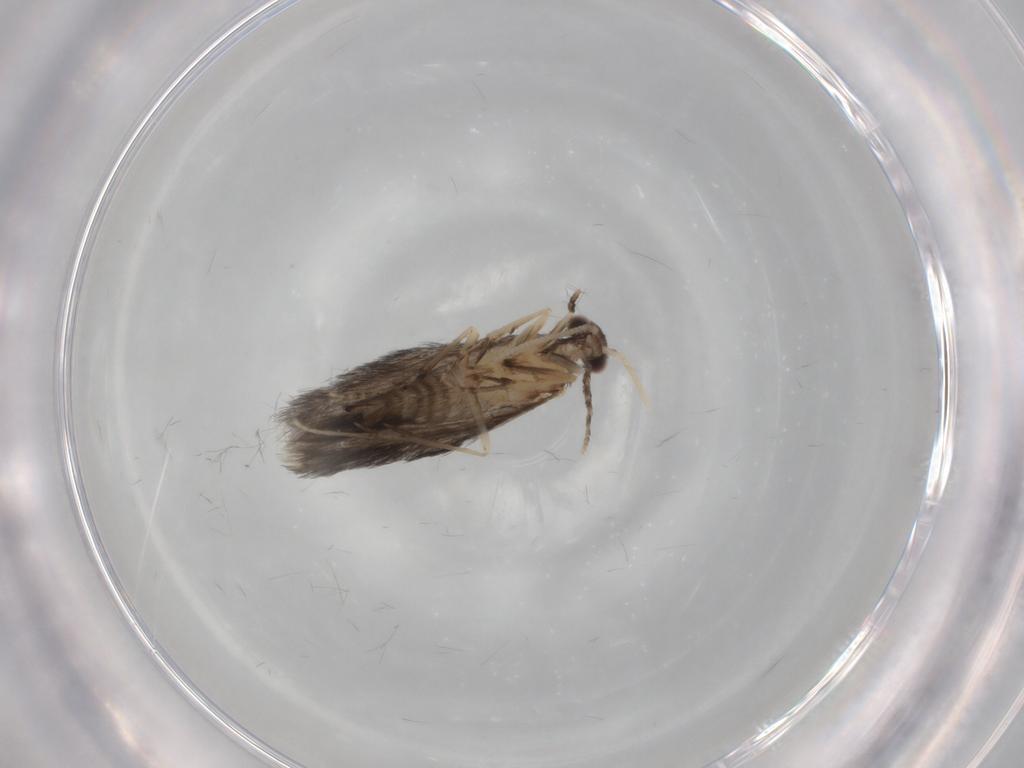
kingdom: Animalia
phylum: Arthropoda
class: Insecta
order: Trichoptera
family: Hydroptilidae
